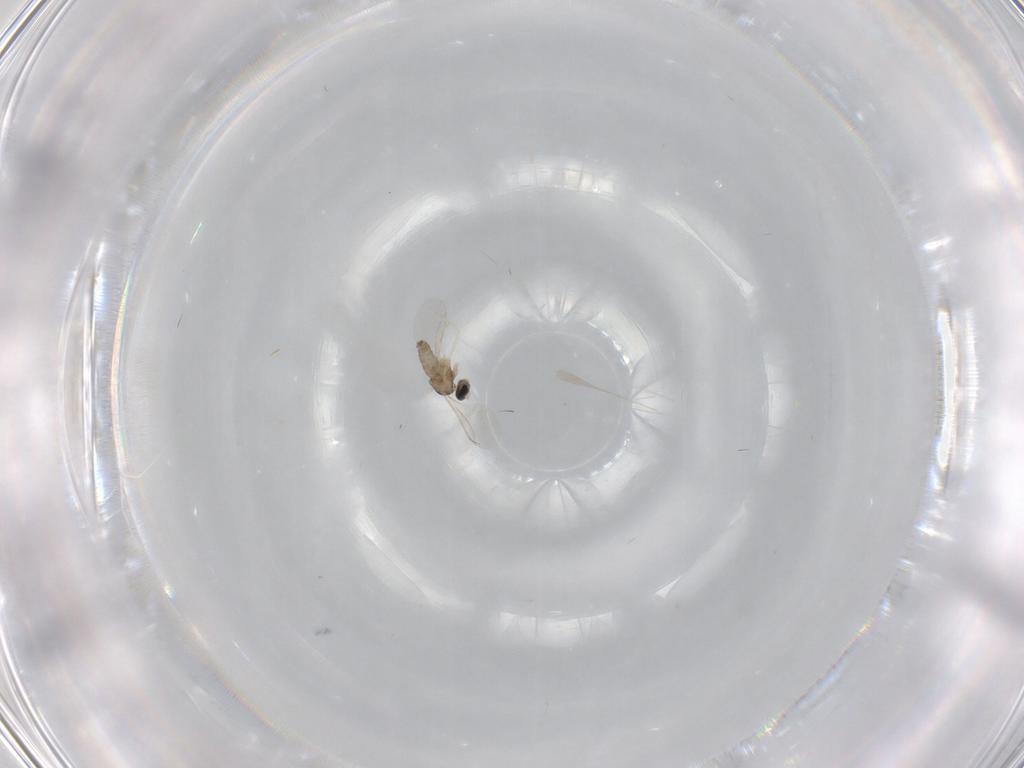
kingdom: Animalia
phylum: Arthropoda
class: Insecta
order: Diptera
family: Cecidomyiidae
